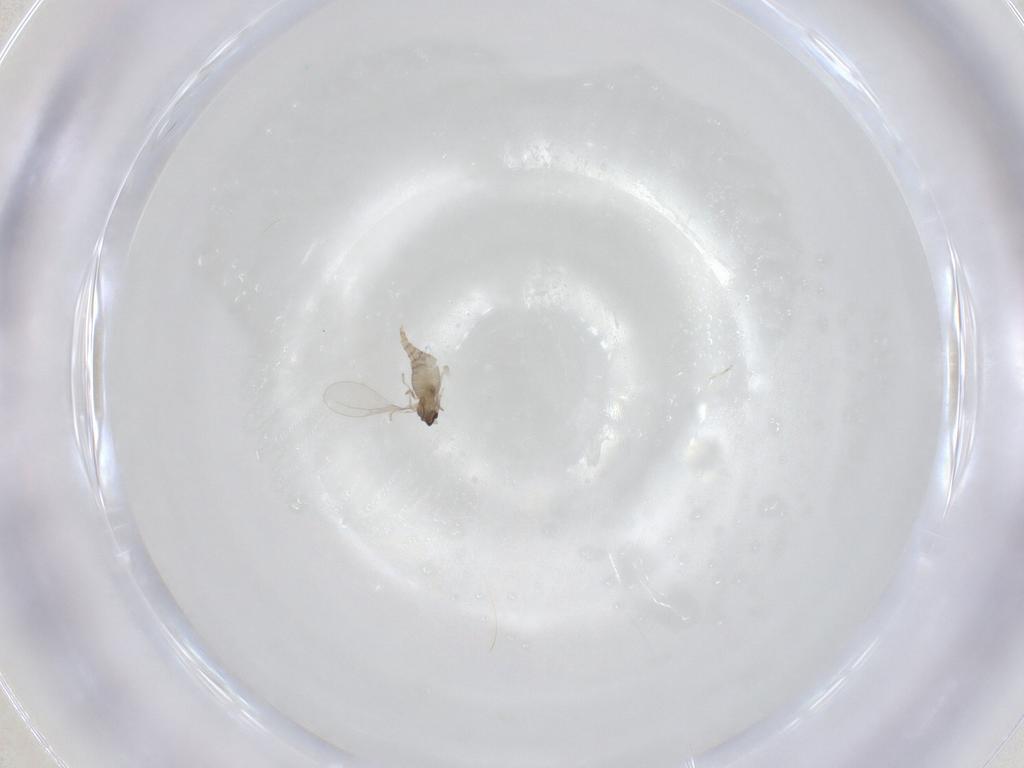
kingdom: Animalia
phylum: Arthropoda
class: Insecta
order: Diptera
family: Cecidomyiidae
